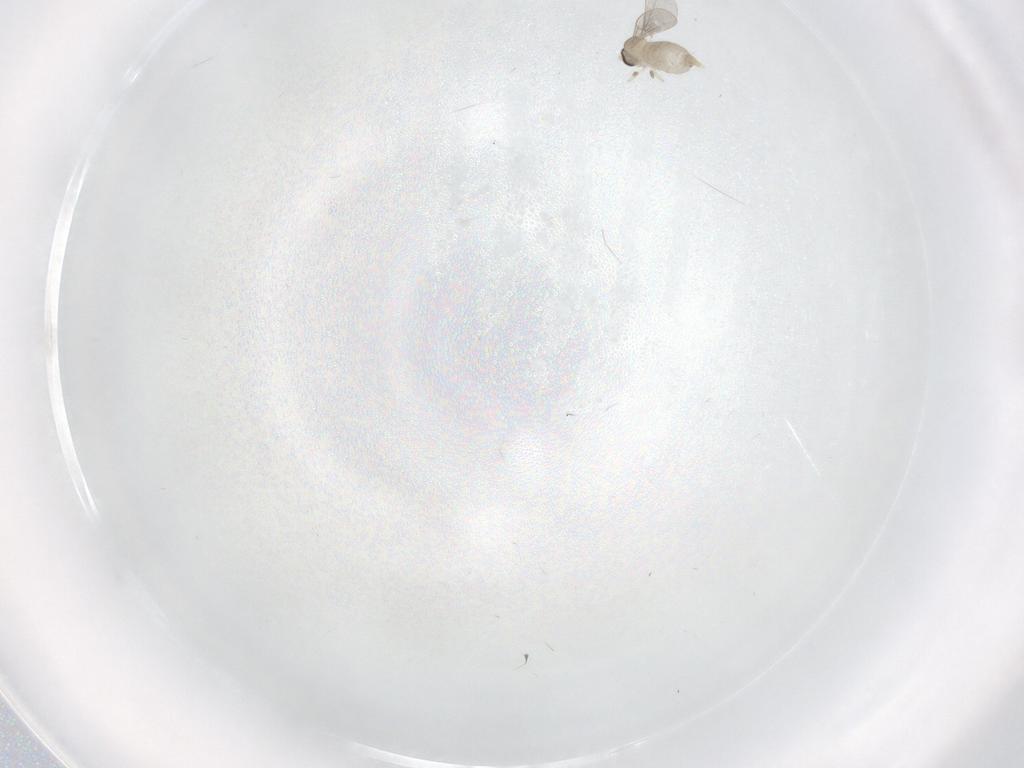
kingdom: Animalia
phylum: Arthropoda
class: Insecta
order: Diptera
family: Cecidomyiidae
